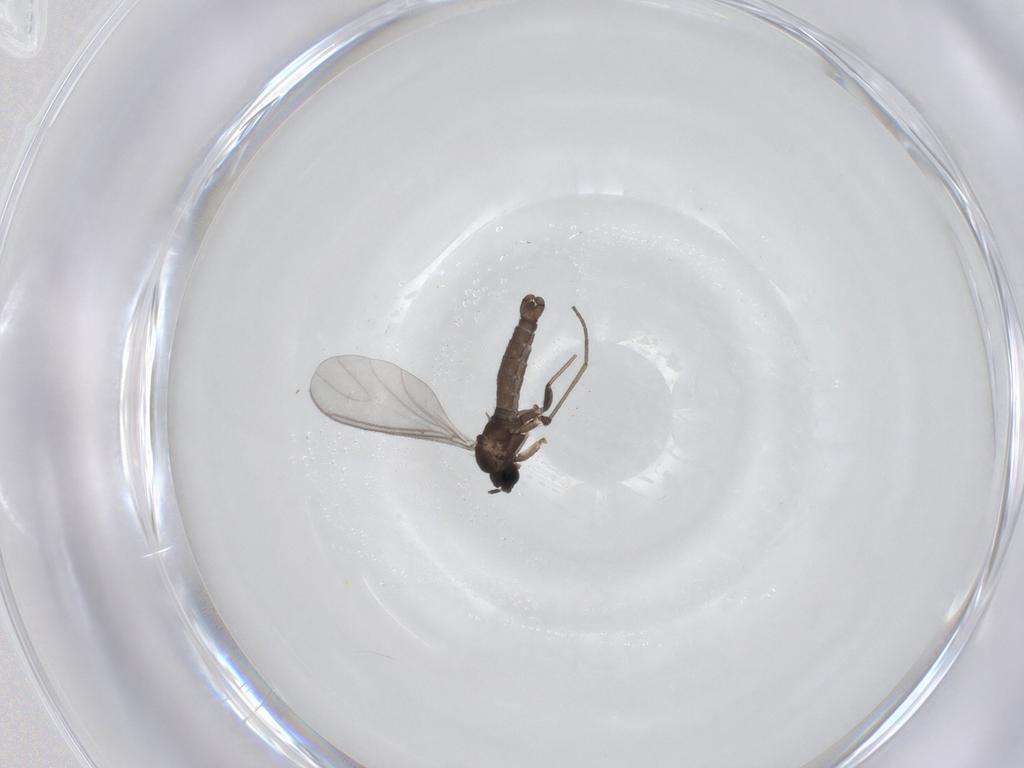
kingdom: Animalia
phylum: Arthropoda
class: Insecta
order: Diptera
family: Sciaridae
